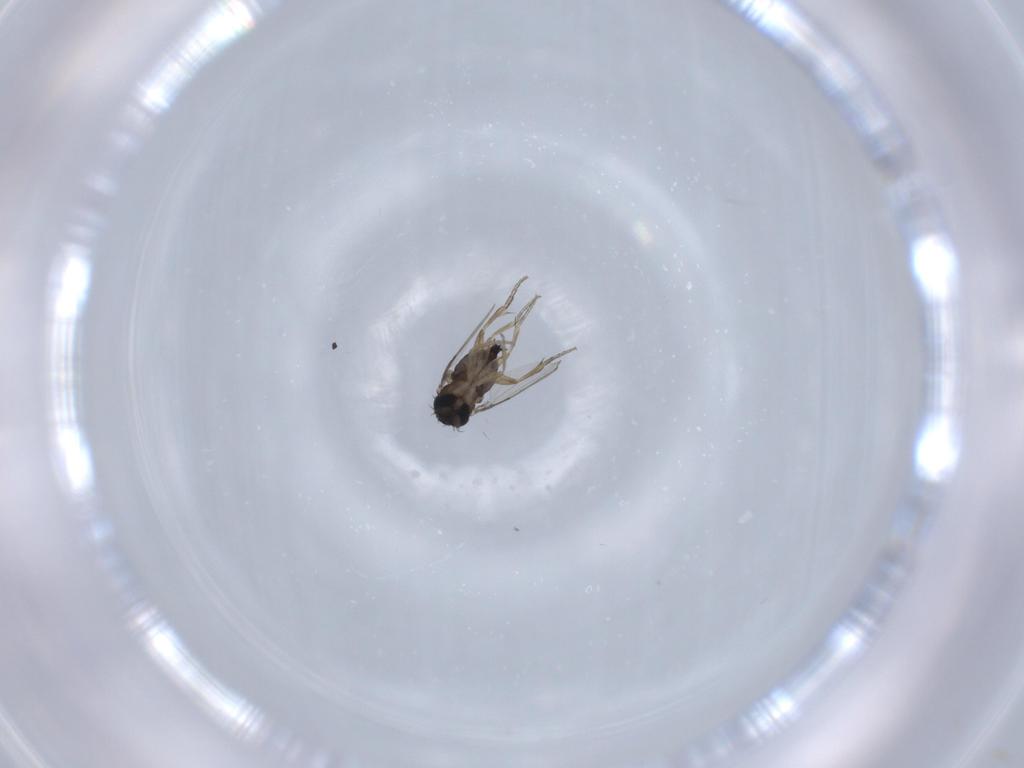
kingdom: Animalia
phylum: Arthropoda
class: Insecta
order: Diptera
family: Phoridae
